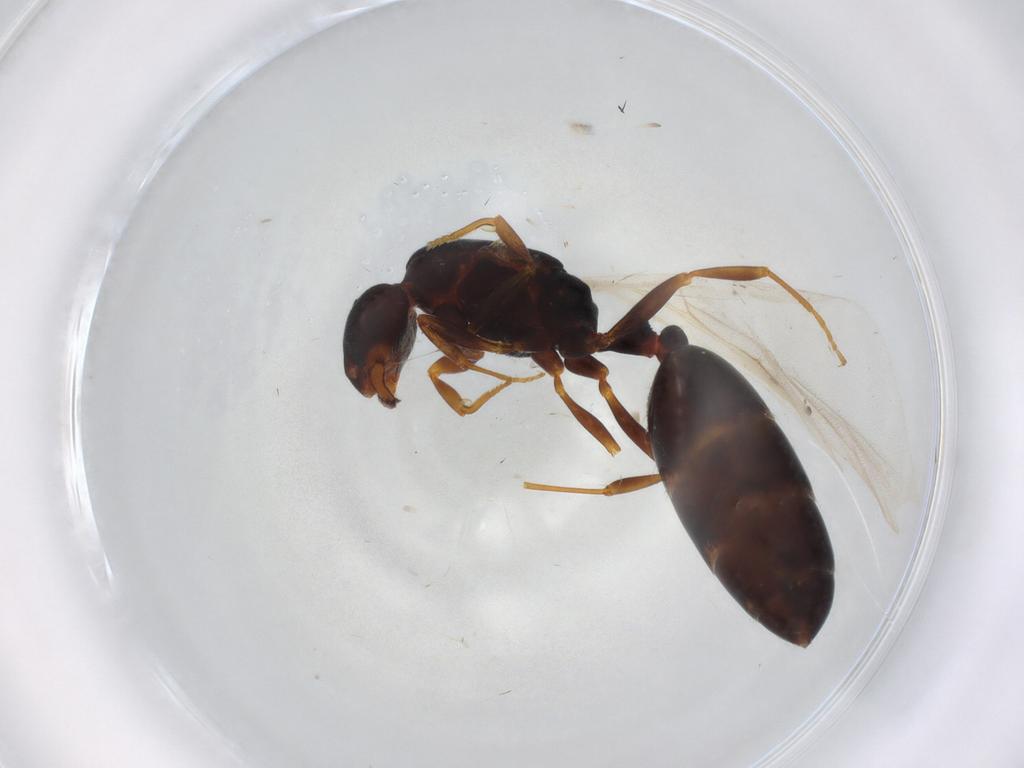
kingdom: Animalia
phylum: Arthropoda
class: Insecta
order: Hymenoptera
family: Formicidae
